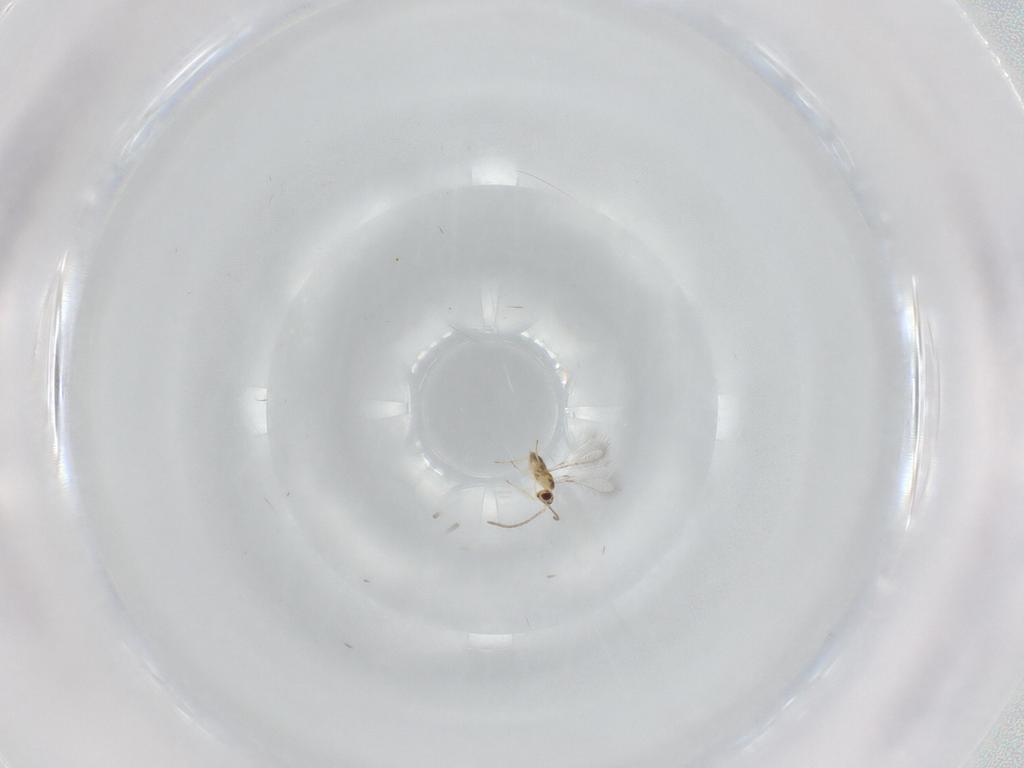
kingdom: Animalia
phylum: Arthropoda
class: Insecta
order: Hymenoptera
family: Mymaridae
